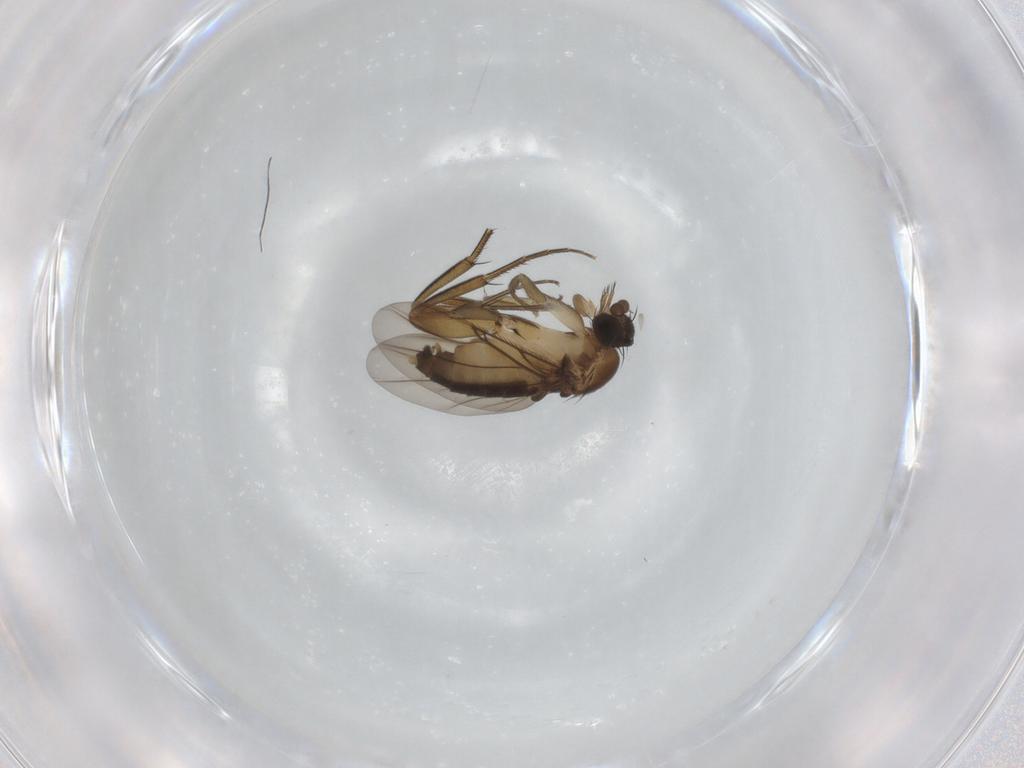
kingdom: Animalia
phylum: Arthropoda
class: Insecta
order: Diptera
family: Phoridae
